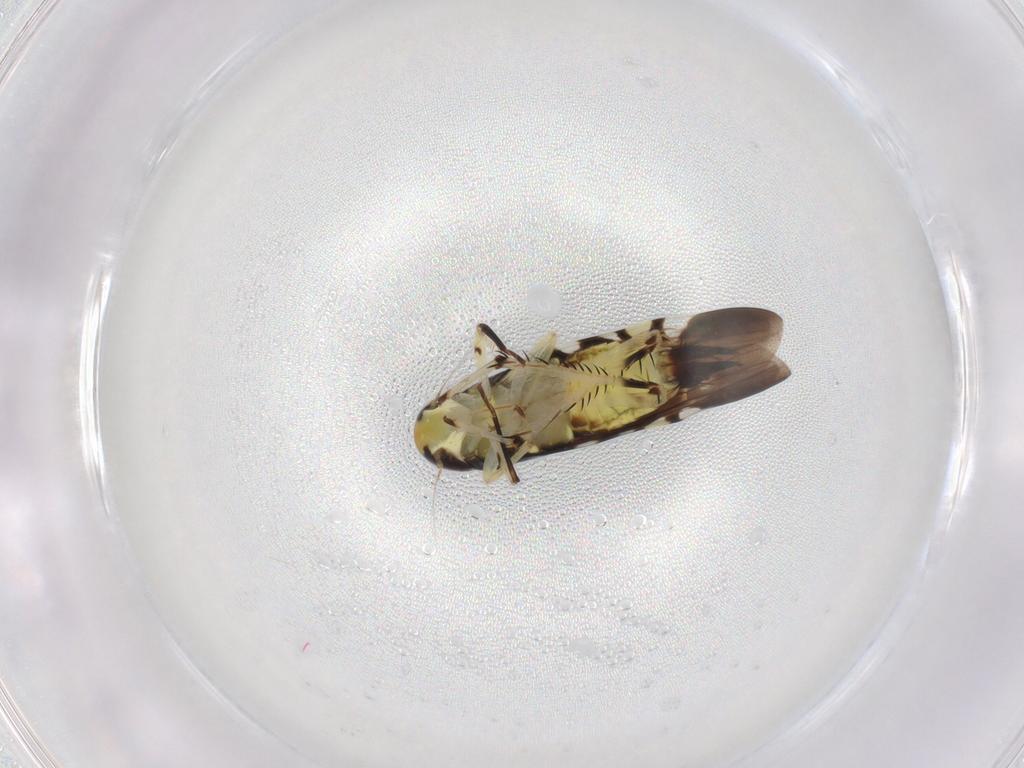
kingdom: Animalia
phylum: Arthropoda
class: Insecta
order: Hemiptera
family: Cicadellidae
